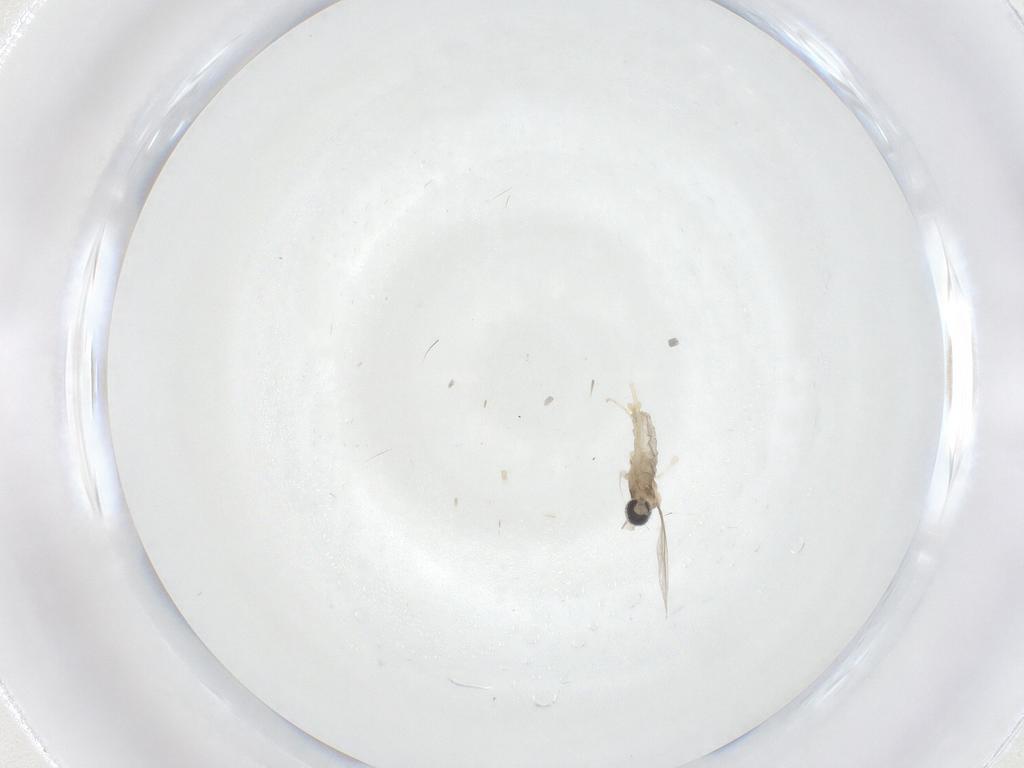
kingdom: Animalia
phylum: Arthropoda
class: Insecta
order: Diptera
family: Cecidomyiidae
